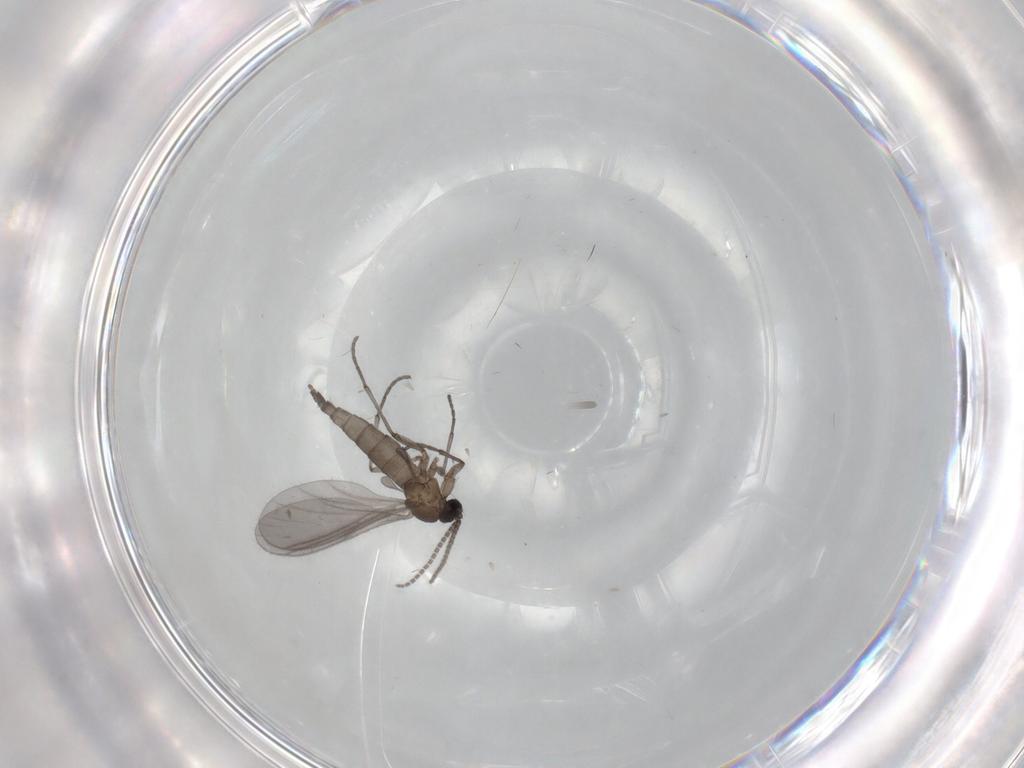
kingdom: Animalia
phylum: Arthropoda
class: Insecta
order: Diptera
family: Sciaridae
